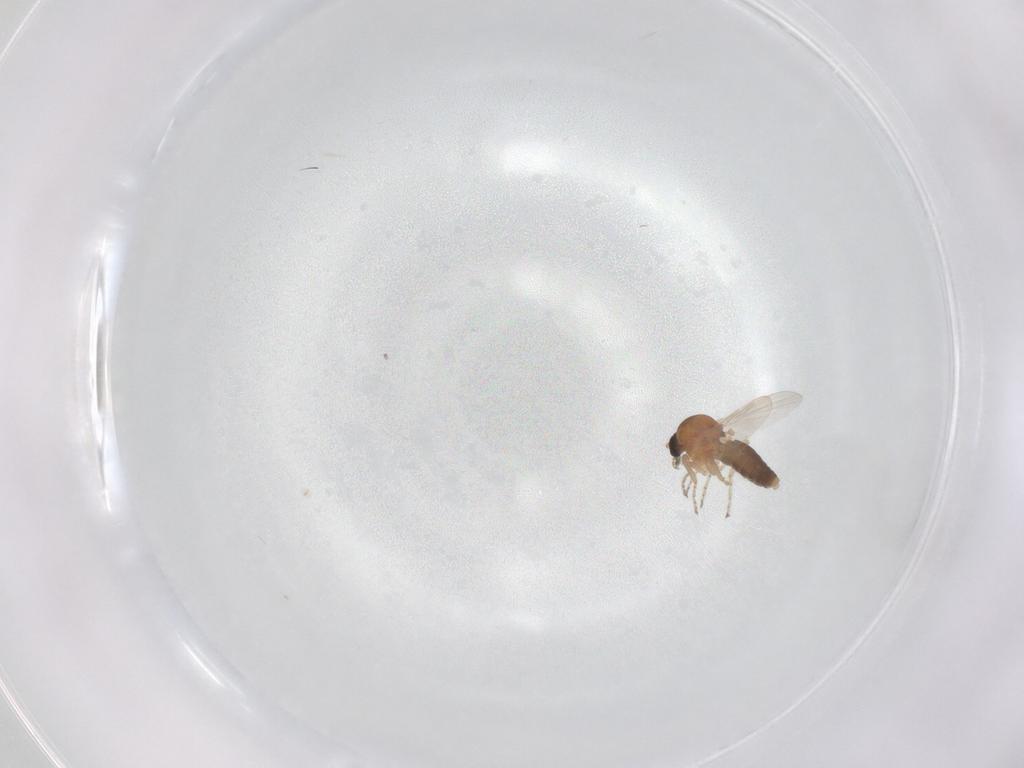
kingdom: Animalia
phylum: Arthropoda
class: Insecta
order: Diptera
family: Ceratopogonidae
